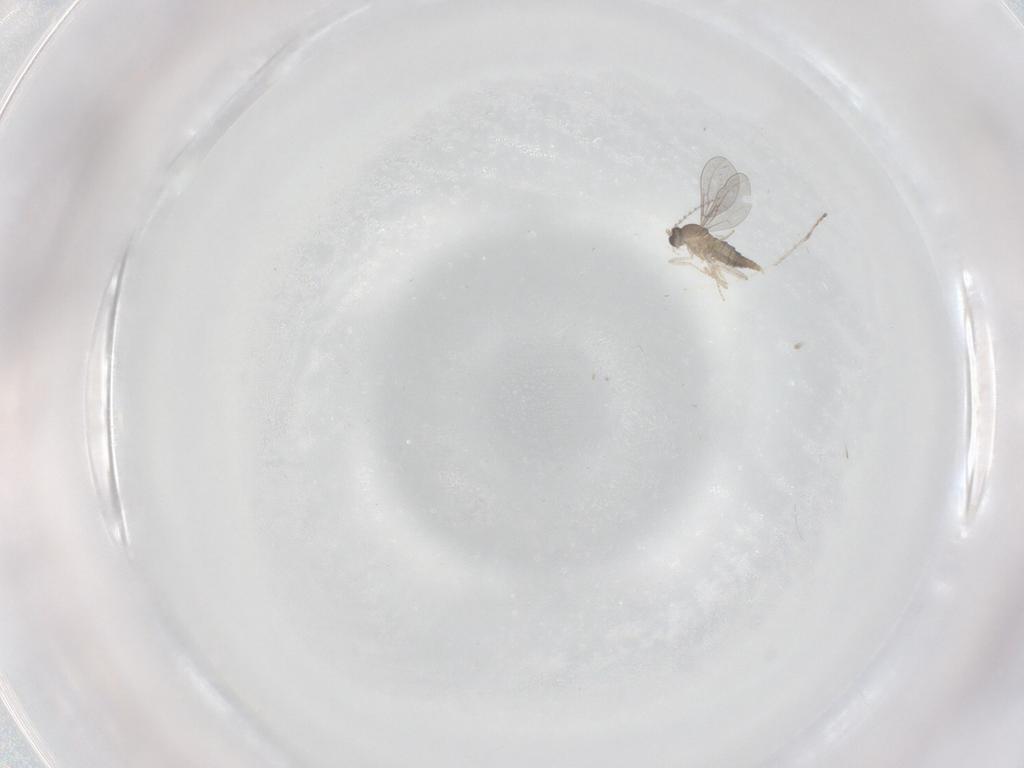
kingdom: Animalia
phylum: Arthropoda
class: Insecta
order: Diptera
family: Cecidomyiidae
